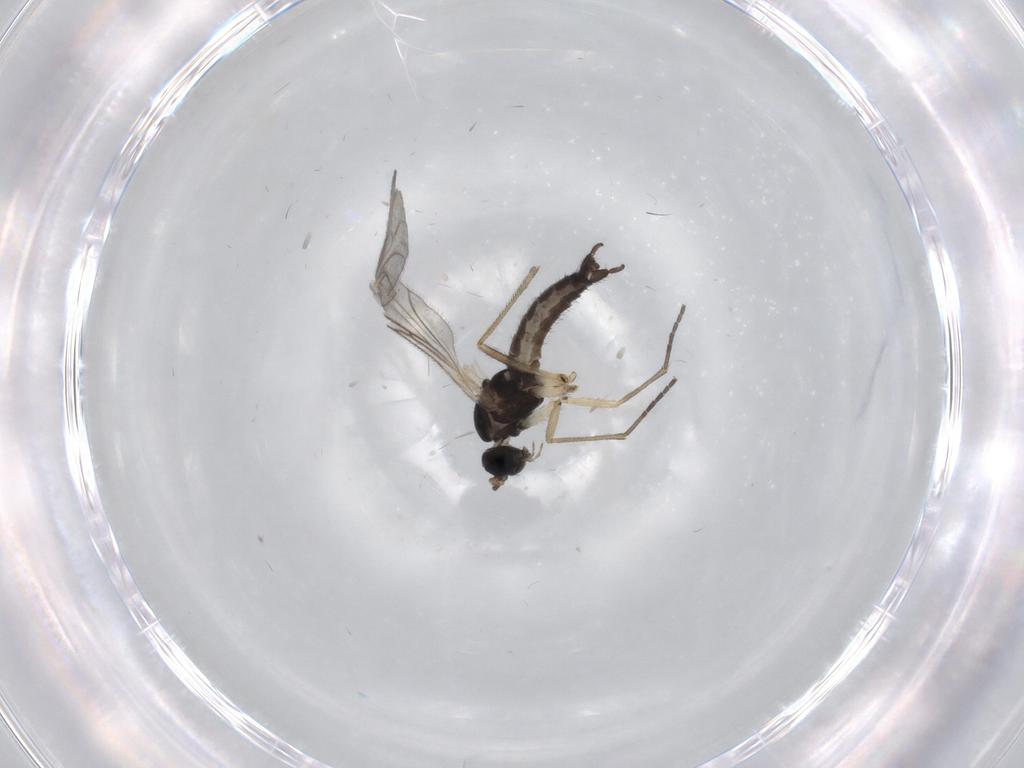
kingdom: Animalia
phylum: Arthropoda
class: Insecta
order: Diptera
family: Sciaridae
